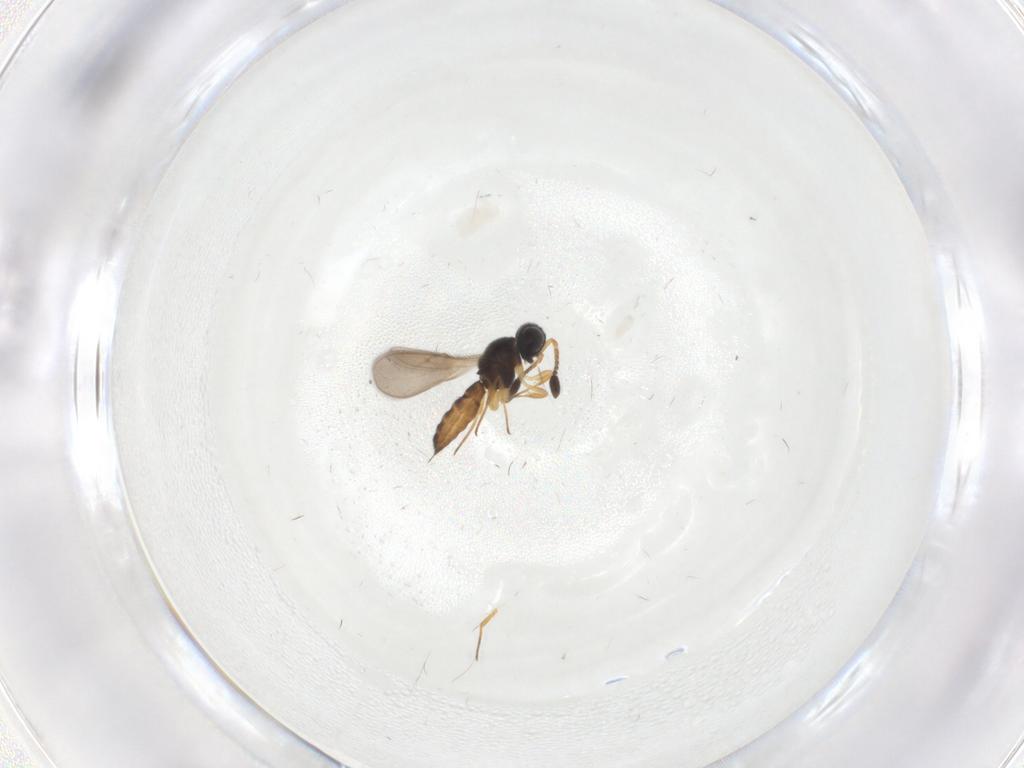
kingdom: Animalia
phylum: Arthropoda
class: Insecta
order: Hymenoptera
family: Scelionidae
